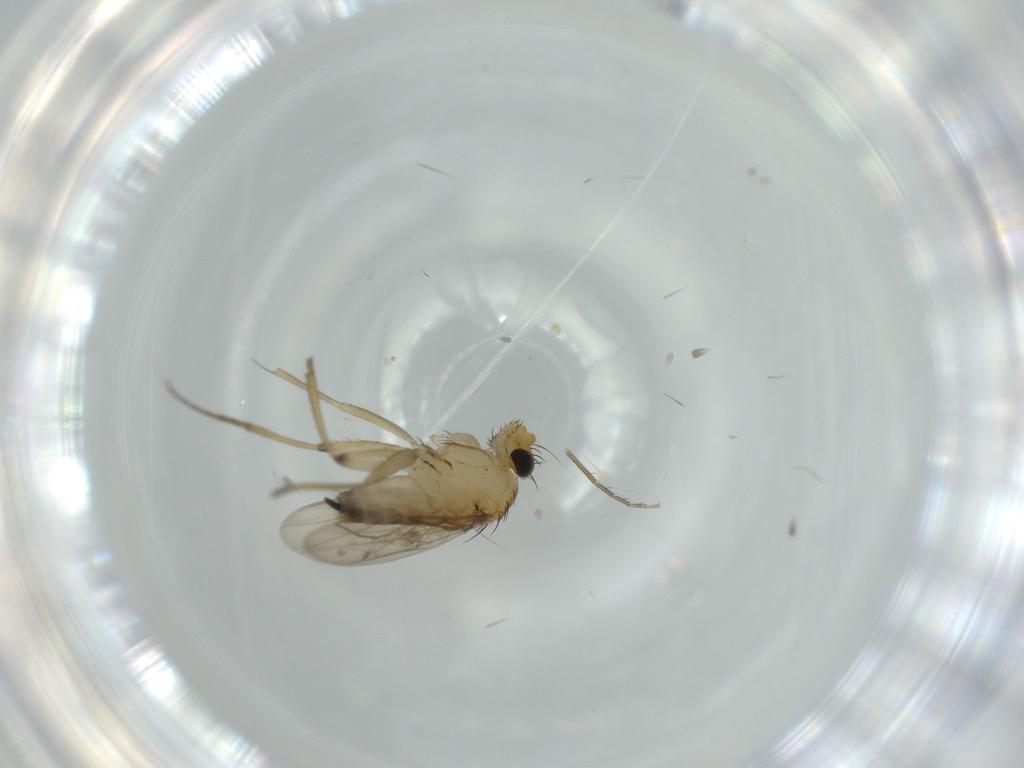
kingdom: Animalia
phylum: Arthropoda
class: Insecta
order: Diptera
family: Phoridae
